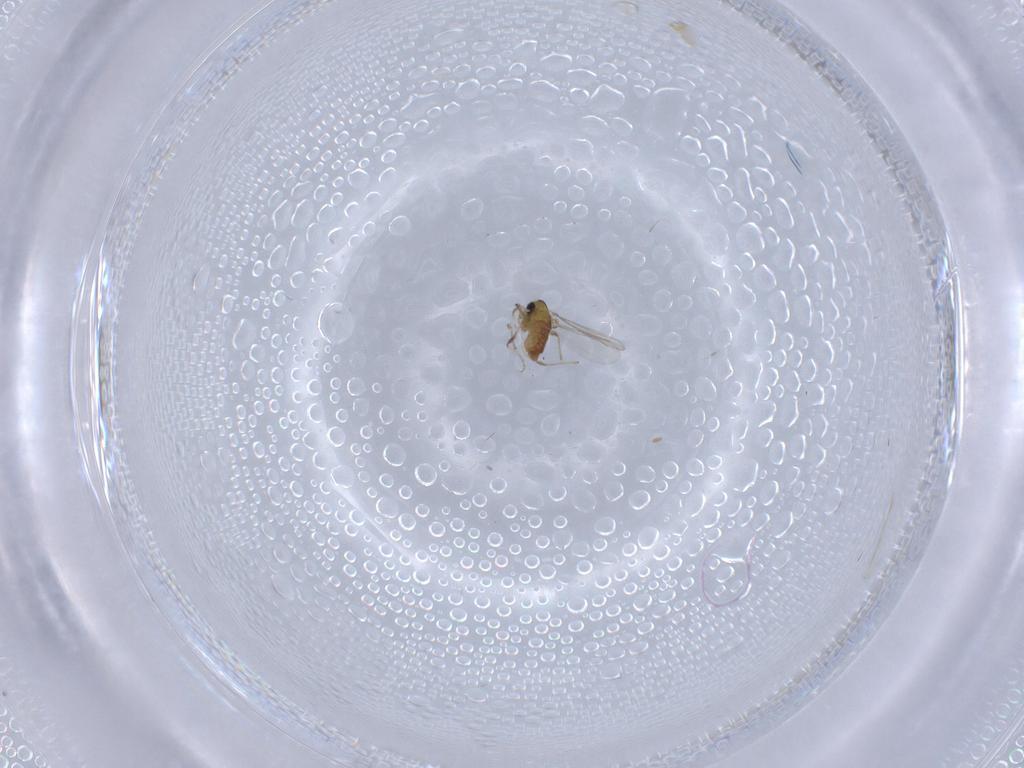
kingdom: Animalia
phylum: Arthropoda
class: Insecta
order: Diptera
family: Chironomidae
